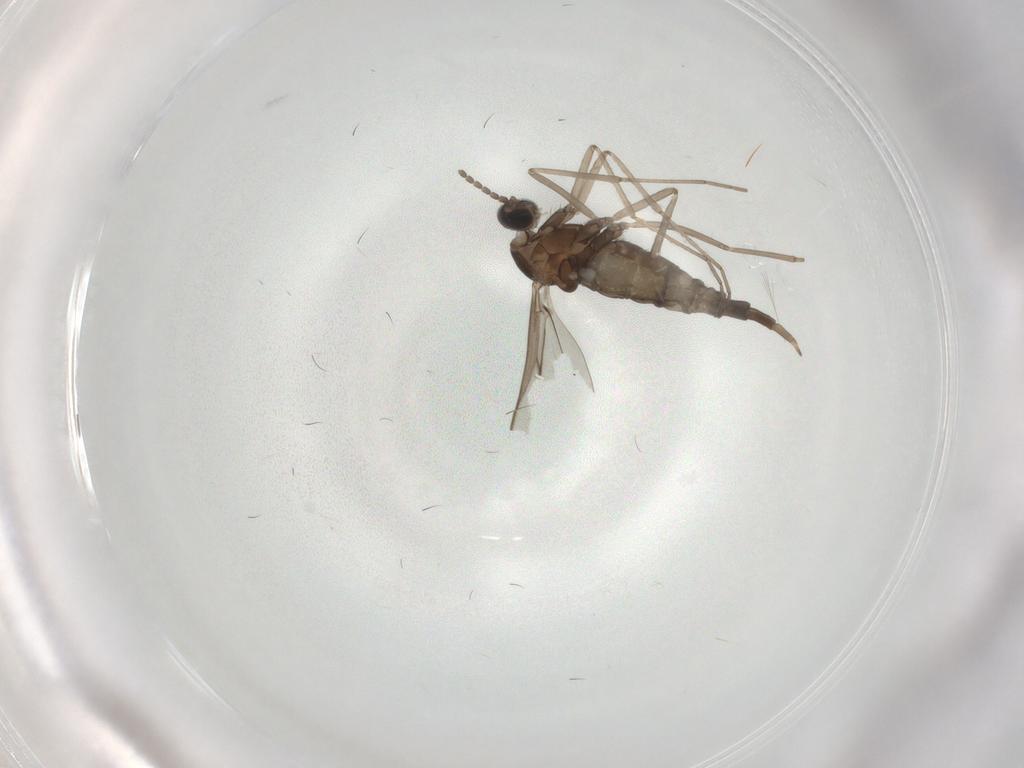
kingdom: Animalia
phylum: Arthropoda
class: Insecta
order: Diptera
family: Cecidomyiidae
